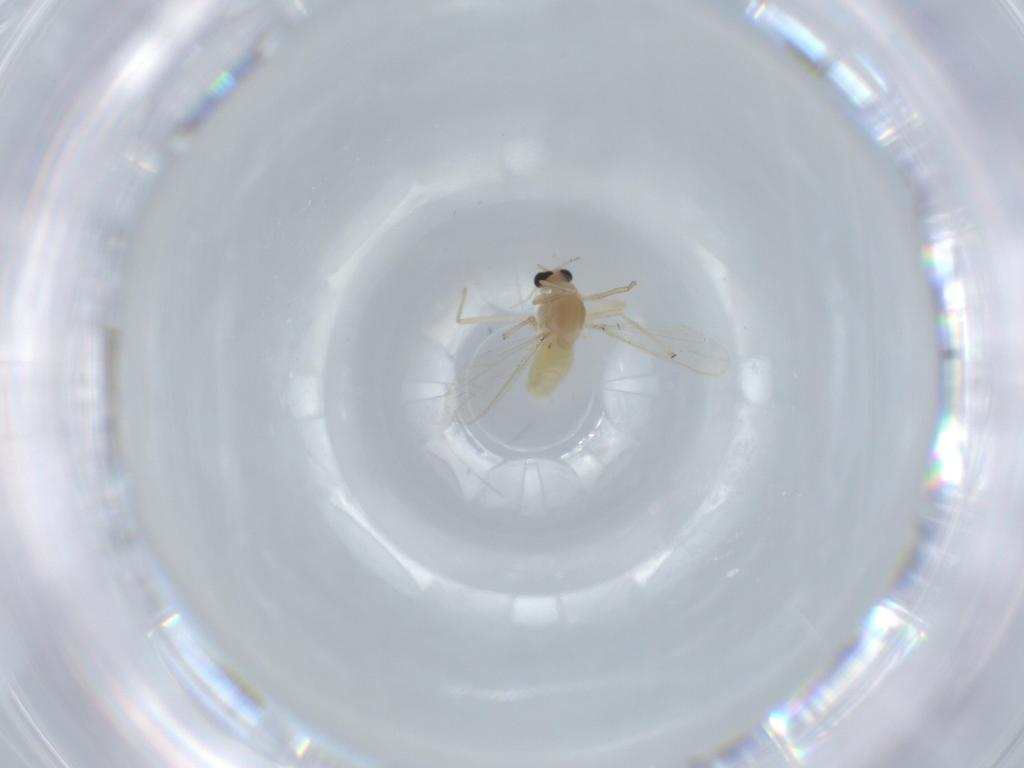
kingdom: Animalia
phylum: Arthropoda
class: Insecta
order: Diptera
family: Chironomidae
